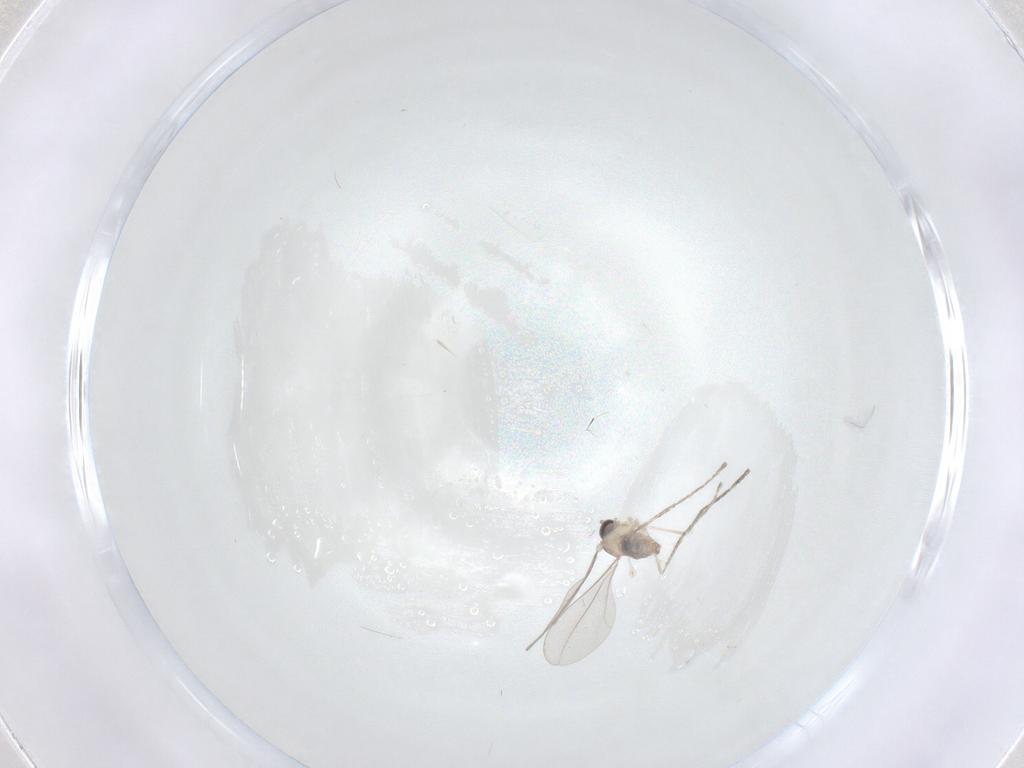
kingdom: Animalia
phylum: Arthropoda
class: Insecta
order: Diptera
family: Cecidomyiidae
